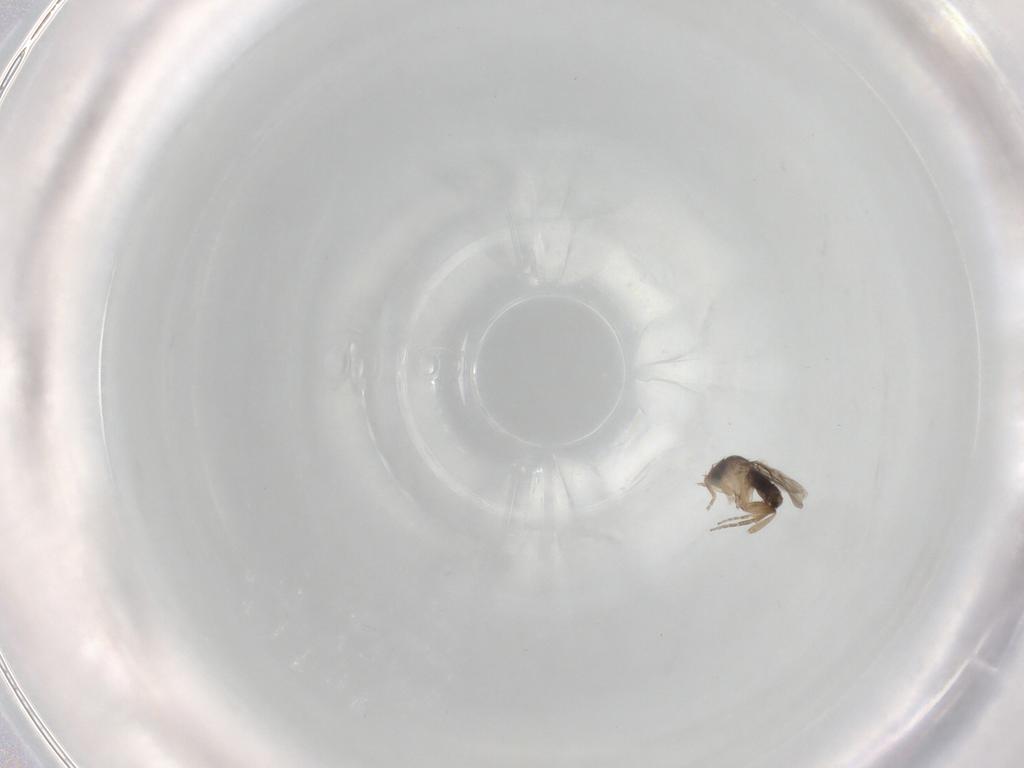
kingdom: Animalia
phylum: Arthropoda
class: Insecta
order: Diptera
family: Phoridae
